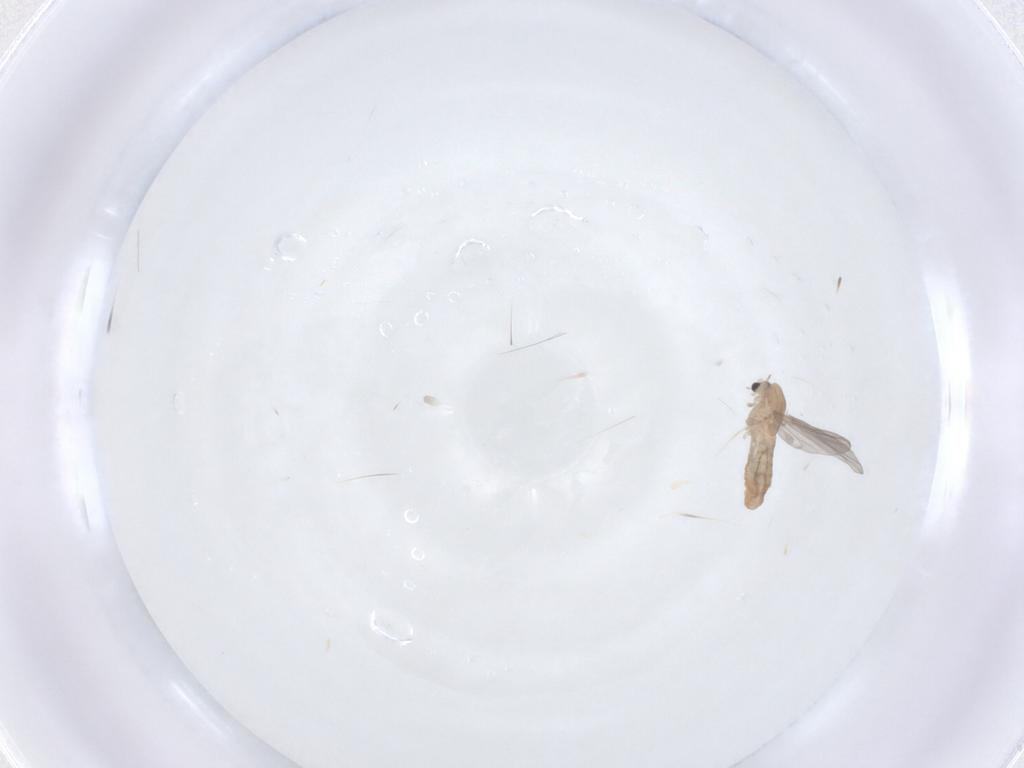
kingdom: Animalia
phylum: Arthropoda
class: Insecta
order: Diptera
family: Chironomidae
